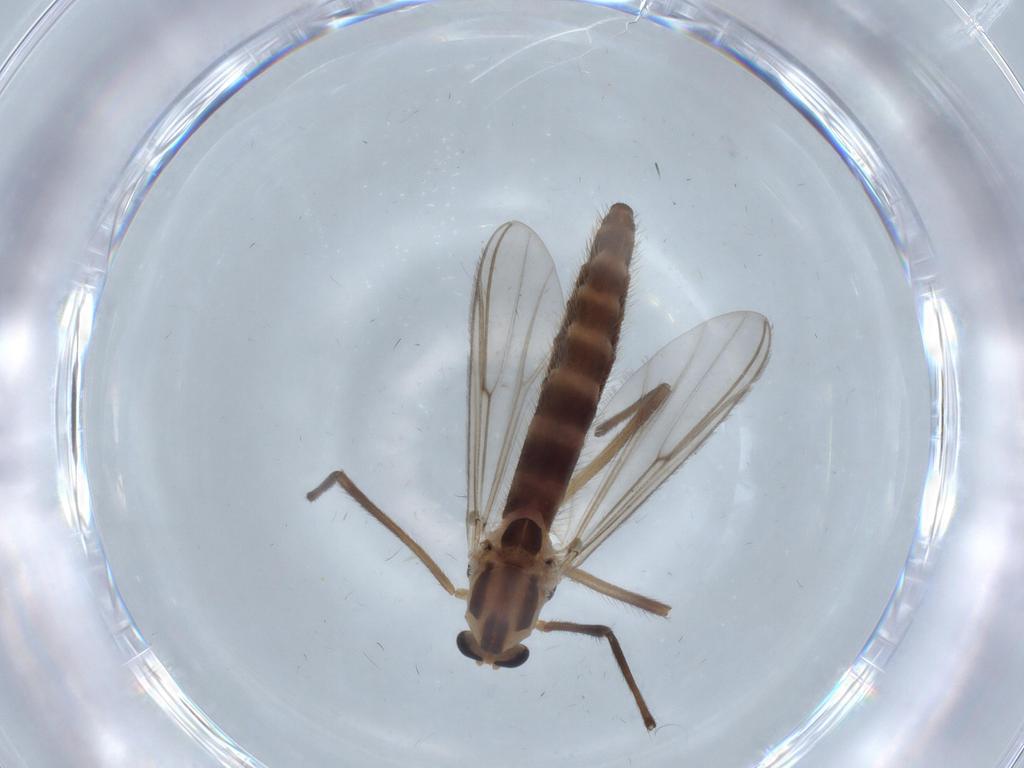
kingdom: Animalia
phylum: Arthropoda
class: Insecta
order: Diptera
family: Chironomidae
